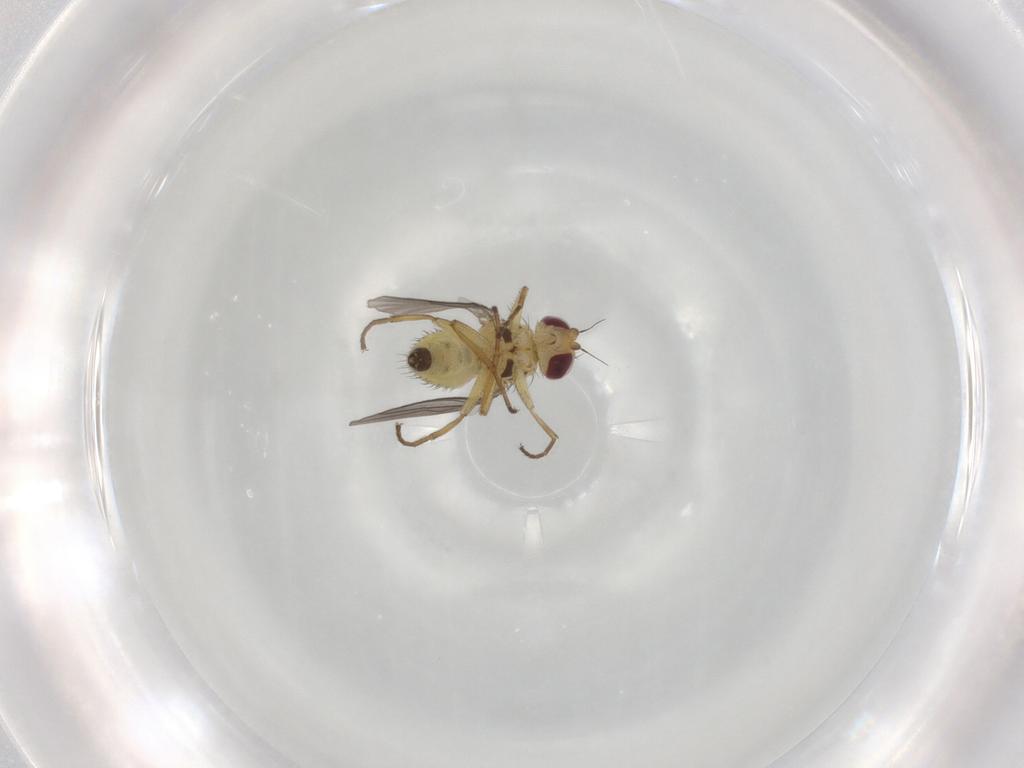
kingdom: Animalia
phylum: Arthropoda
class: Insecta
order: Diptera
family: Agromyzidae
